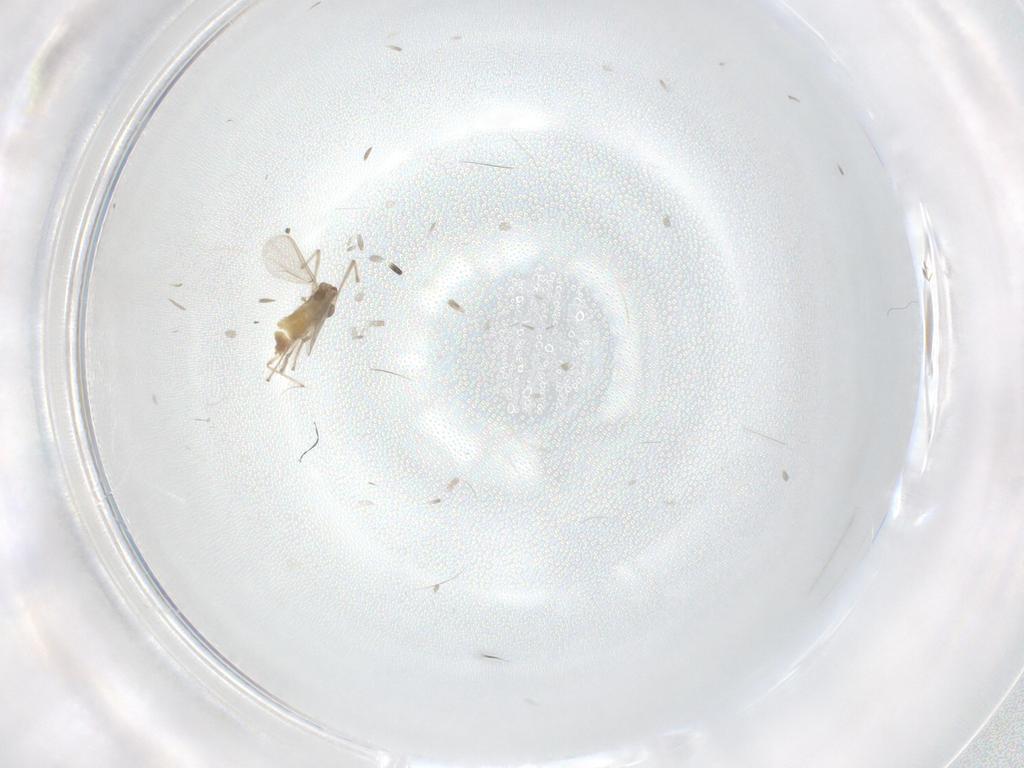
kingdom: Animalia
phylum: Arthropoda
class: Insecta
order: Diptera
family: Chironomidae
